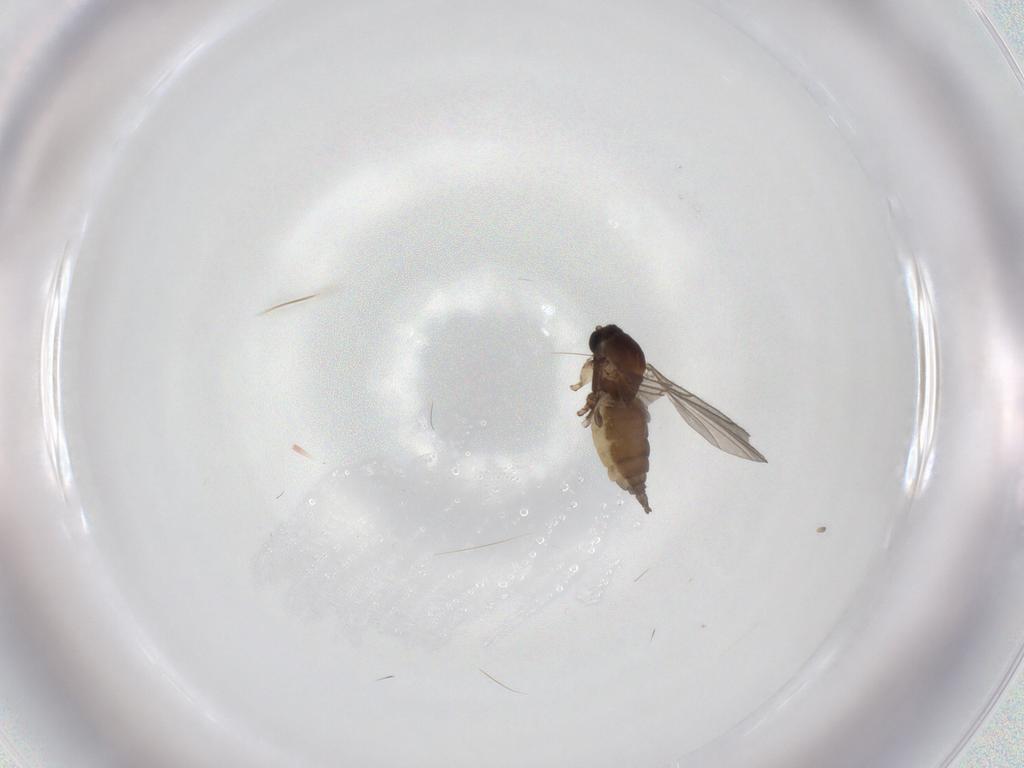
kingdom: Animalia
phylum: Arthropoda
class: Insecta
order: Diptera
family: Sciaridae
